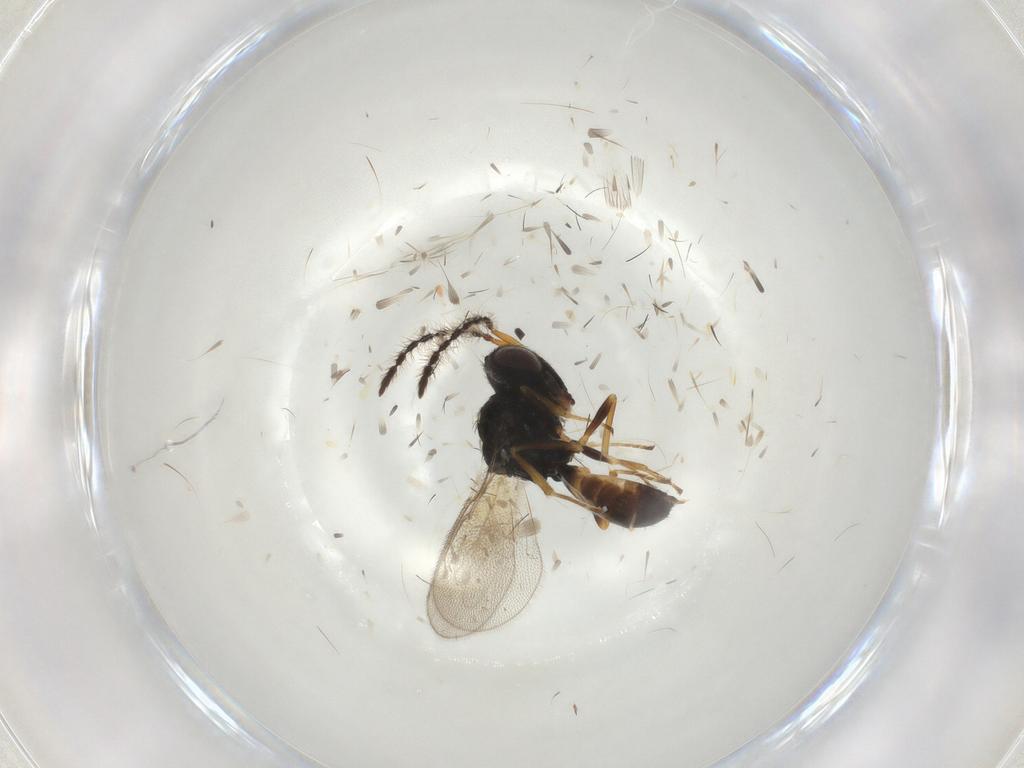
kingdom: Animalia
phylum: Arthropoda
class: Insecta
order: Hymenoptera
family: Pteromalidae
